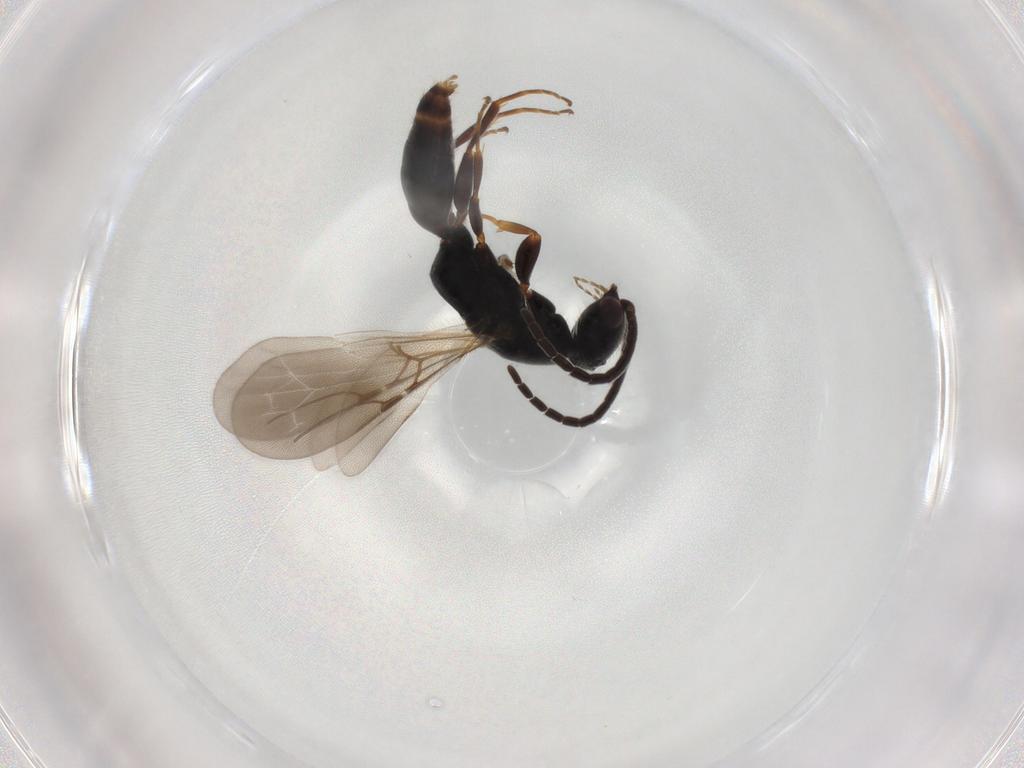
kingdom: Animalia
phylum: Arthropoda
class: Insecta
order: Hymenoptera
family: Bethylidae
